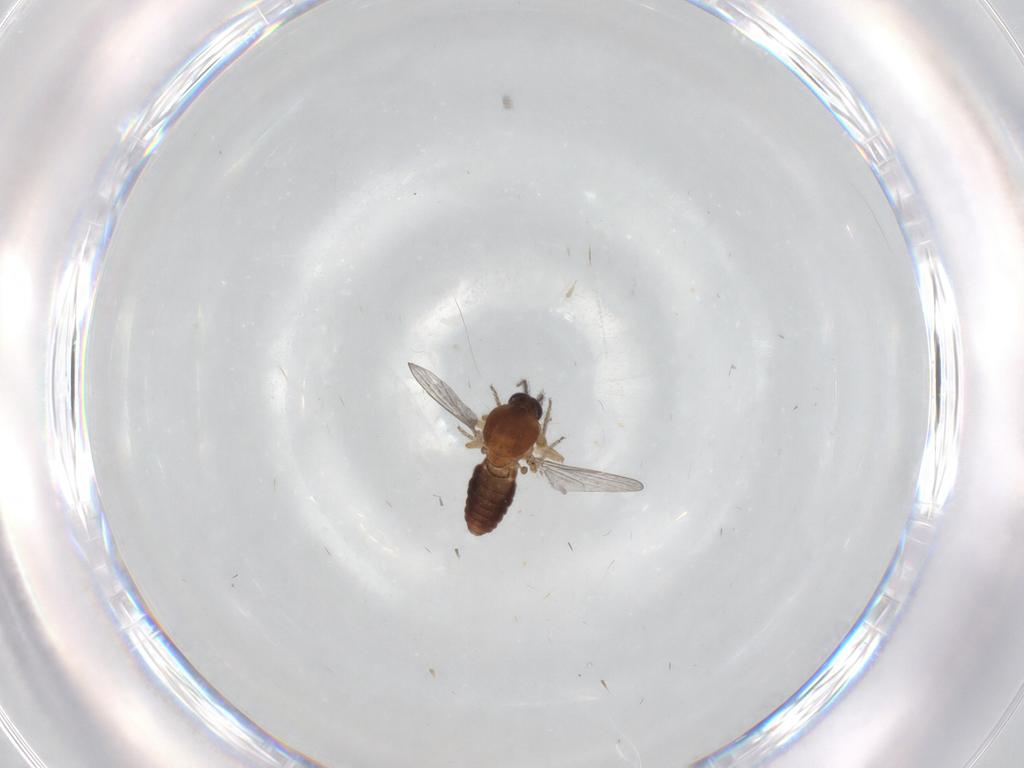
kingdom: Animalia
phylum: Arthropoda
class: Insecta
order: Diptera
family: Ceratopogonidae
